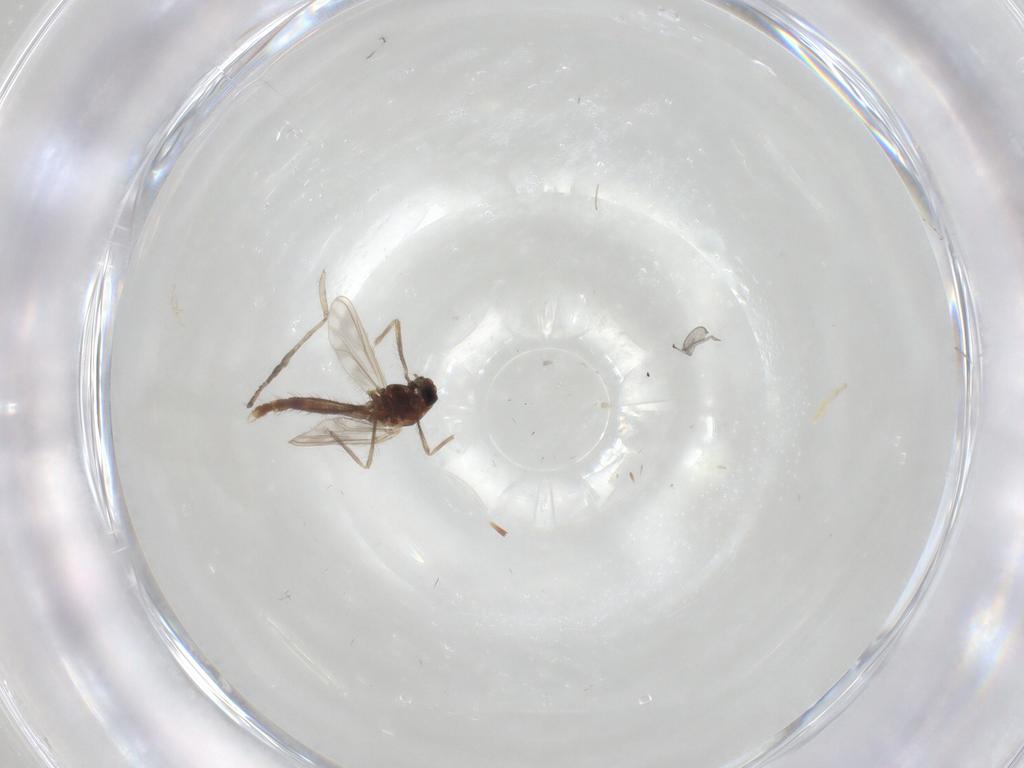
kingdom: Animalia
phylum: Arthropoda
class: Insecta
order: Diptera
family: Chironomidae
